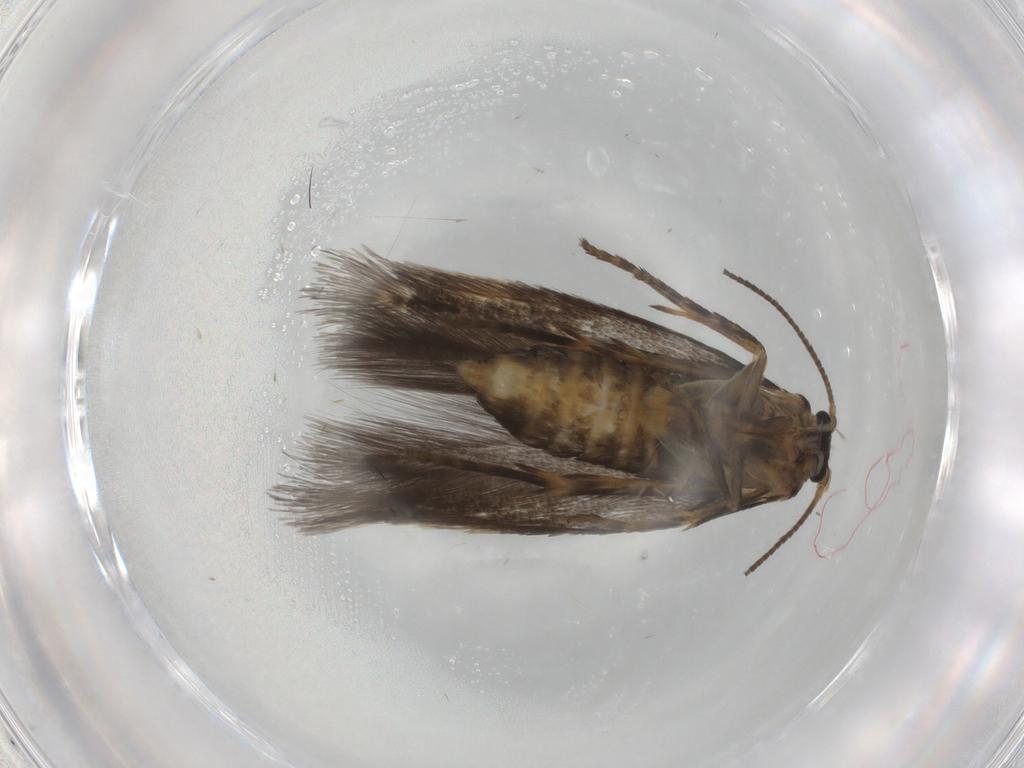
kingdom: Animalia
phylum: Arthropoda
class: Insecta
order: Lepidoptera
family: Nepticulidae
